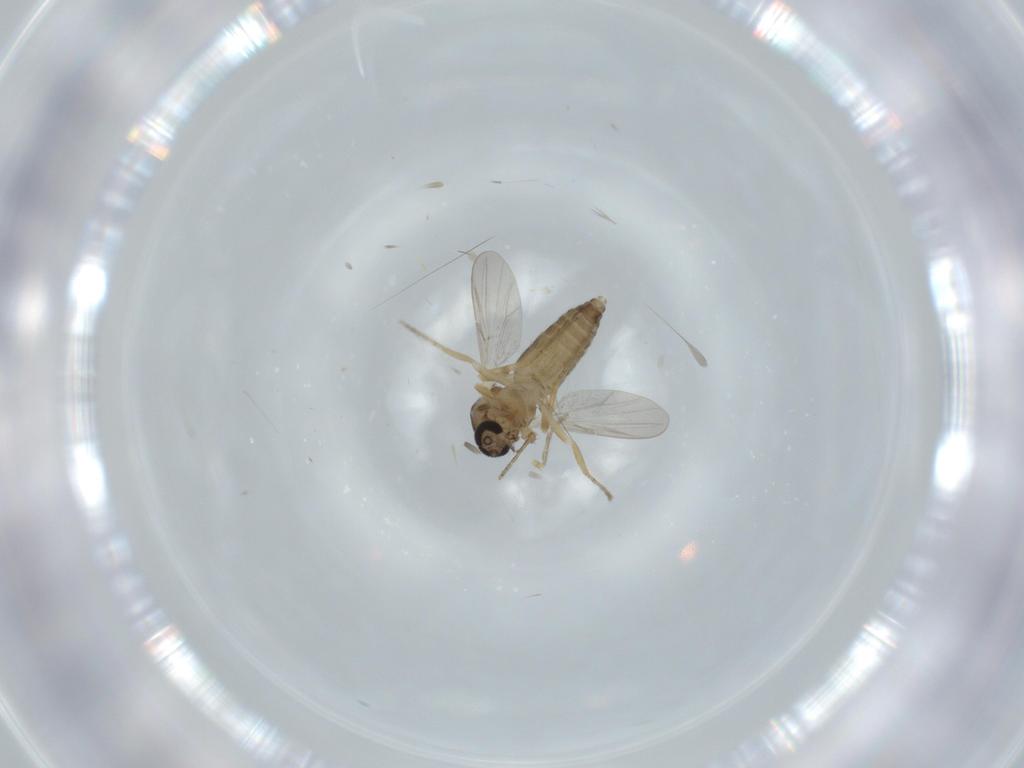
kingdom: Animalia
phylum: Arthropoda
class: Insecta
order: Diptera
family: Ceratopogonidae
